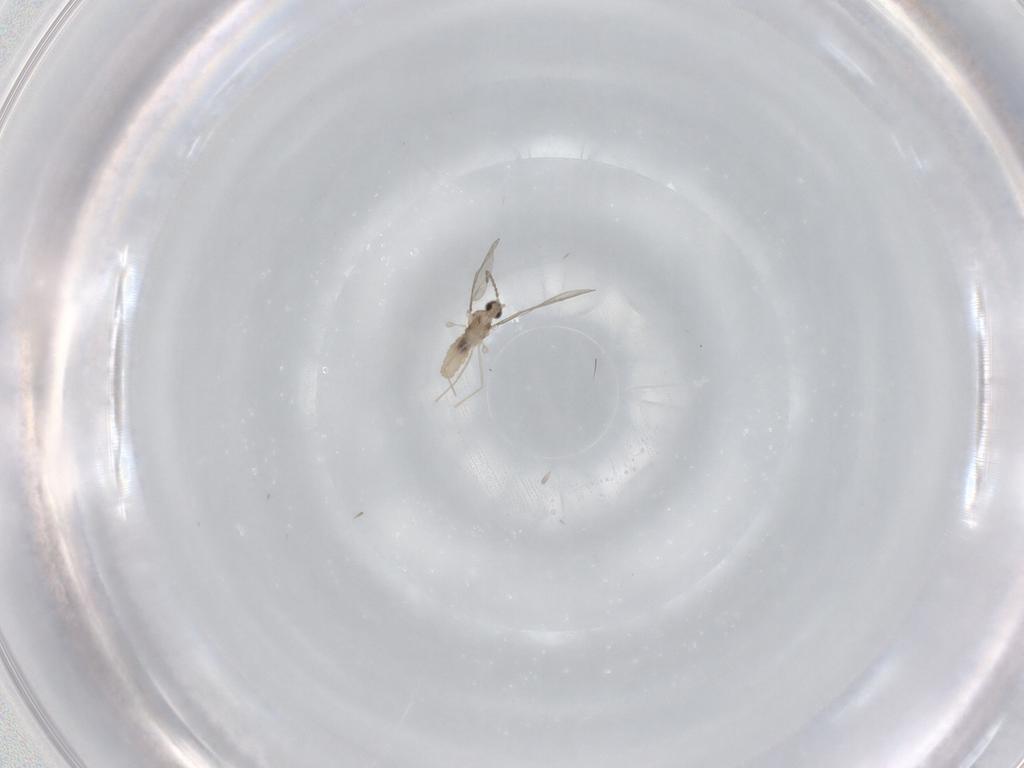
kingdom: Animalia
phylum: Arthropoda
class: Insecta
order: Diptera
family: Cecidomyiidae
